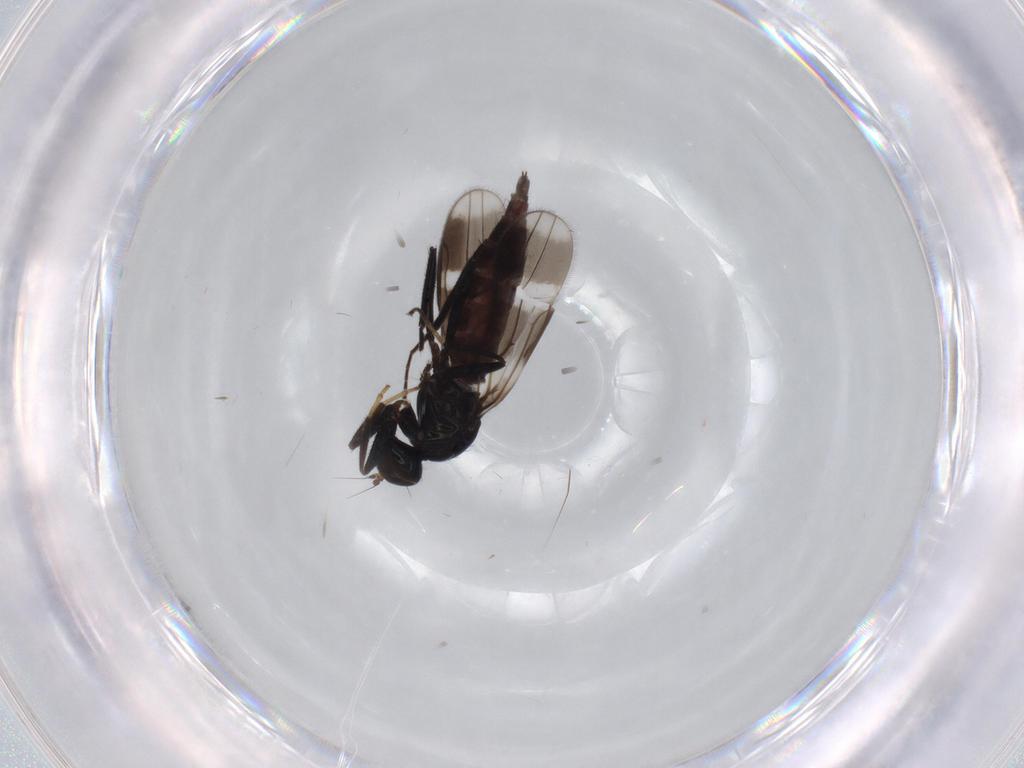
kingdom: Animalia
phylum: Arthropoda
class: Insecta
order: Diptera
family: Hybotidae
